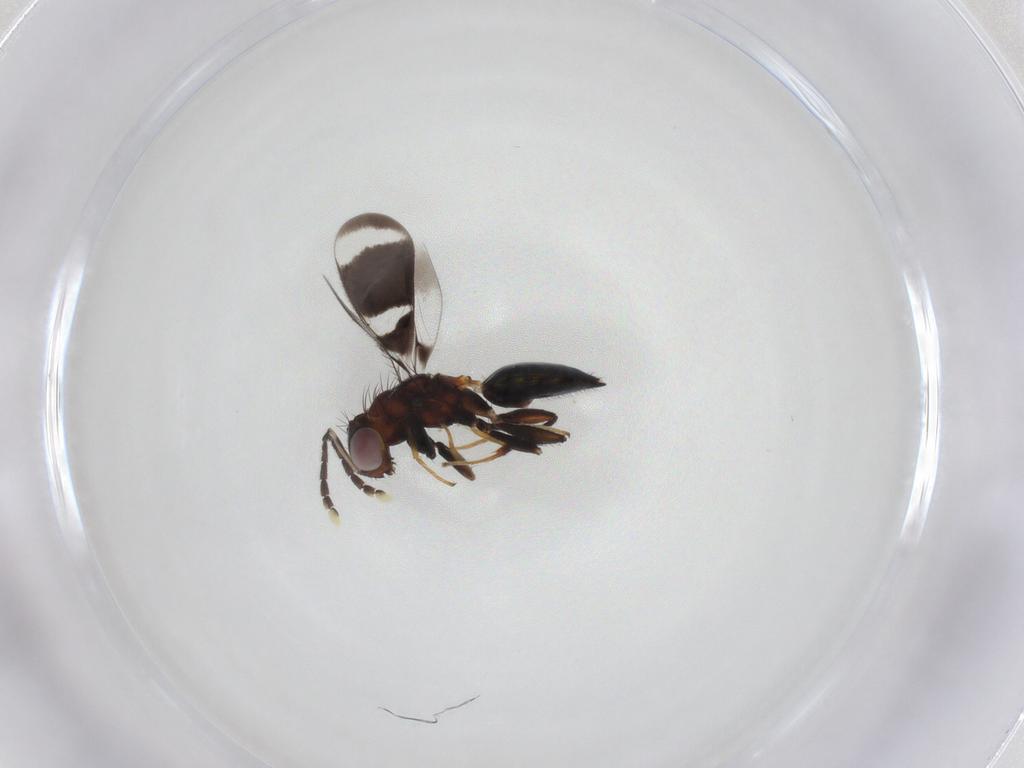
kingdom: Animalia
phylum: Arthropoda
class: Insecta
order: Hymenoptera
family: Eulophidae
